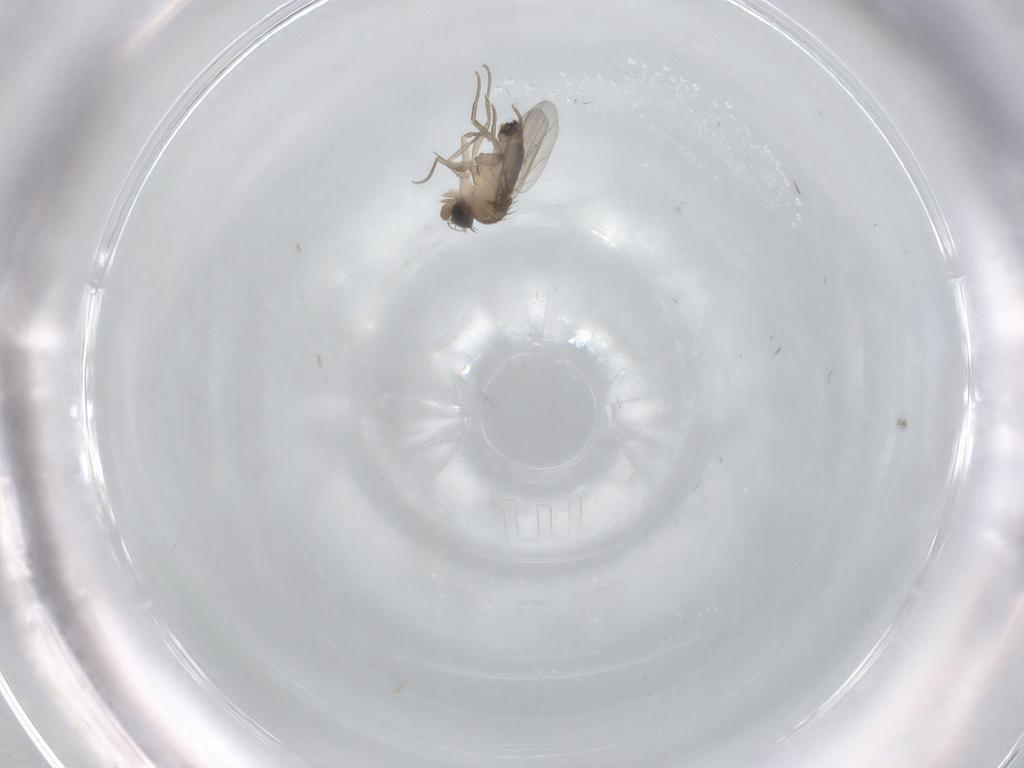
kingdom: Animalia
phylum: Arthropoda
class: Insecta
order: Diptera
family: Phoridae
